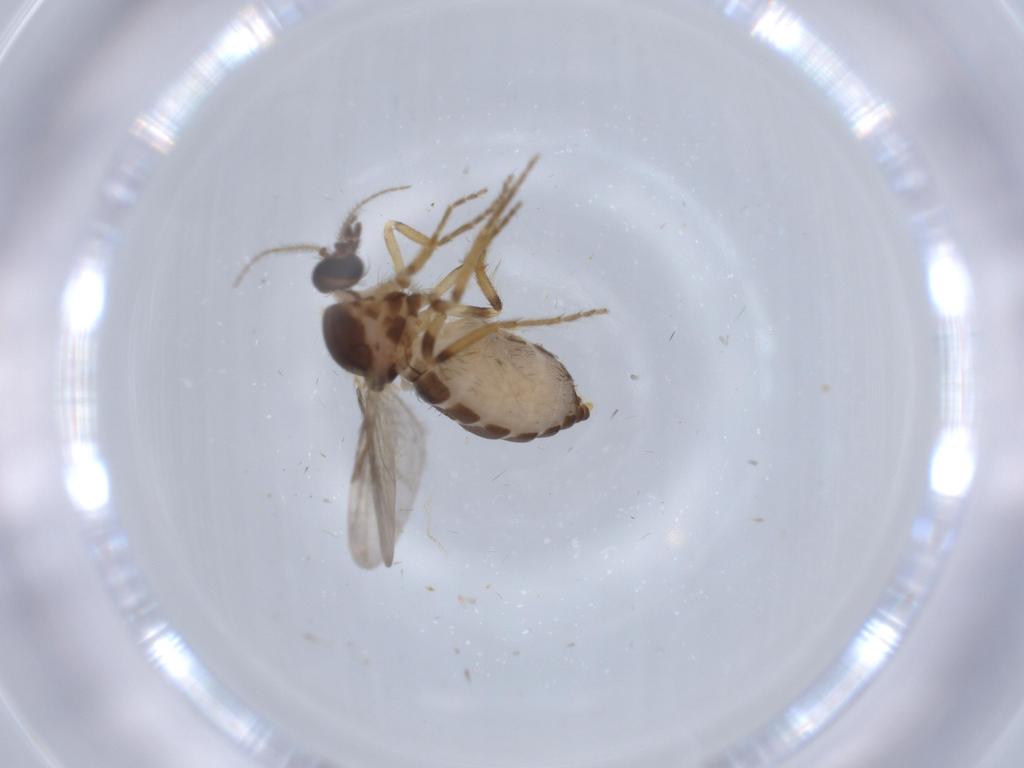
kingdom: Animalia
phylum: Arthropoda
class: Insecta
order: Diptera
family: Ceratopogonidae
